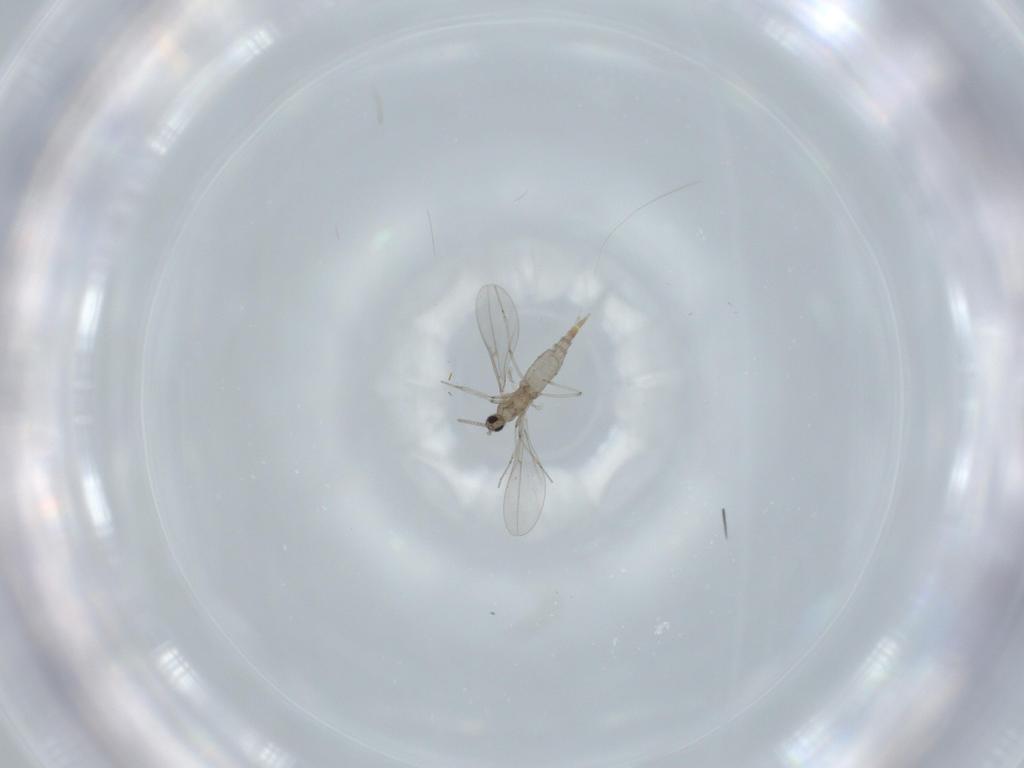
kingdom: Animalia
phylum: Arthropoda
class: Insecta
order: Diptera
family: Cecidomyiidae
